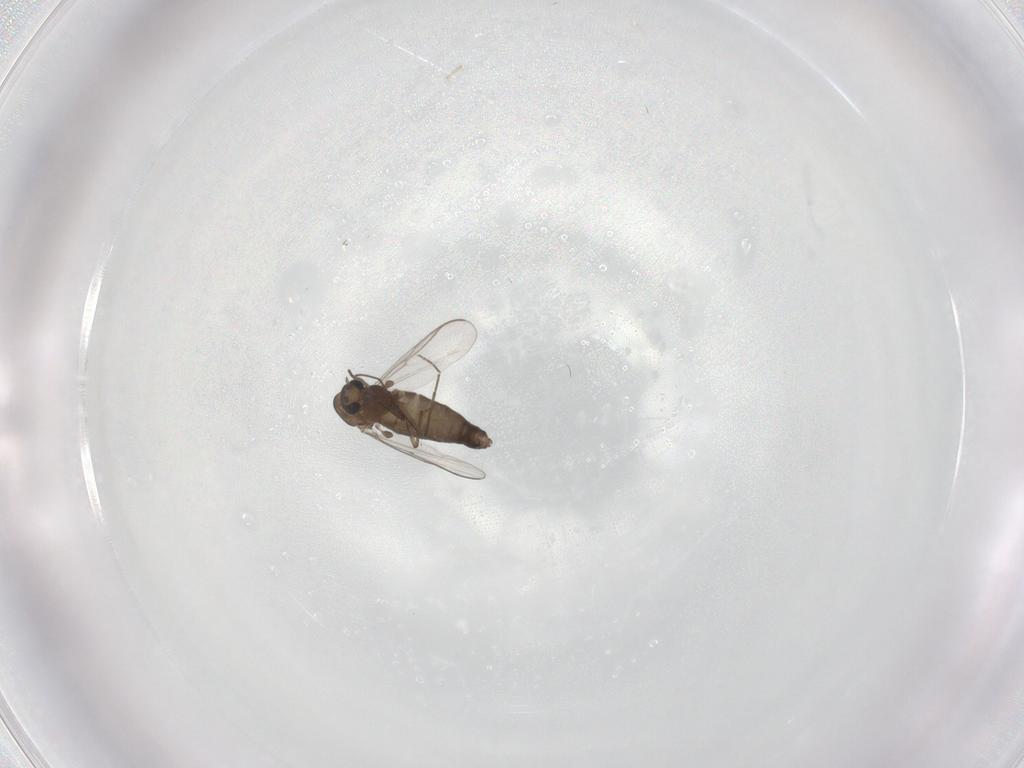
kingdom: Animalia
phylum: Arthropoda
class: Insecta
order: Diptera
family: Chironomidae
